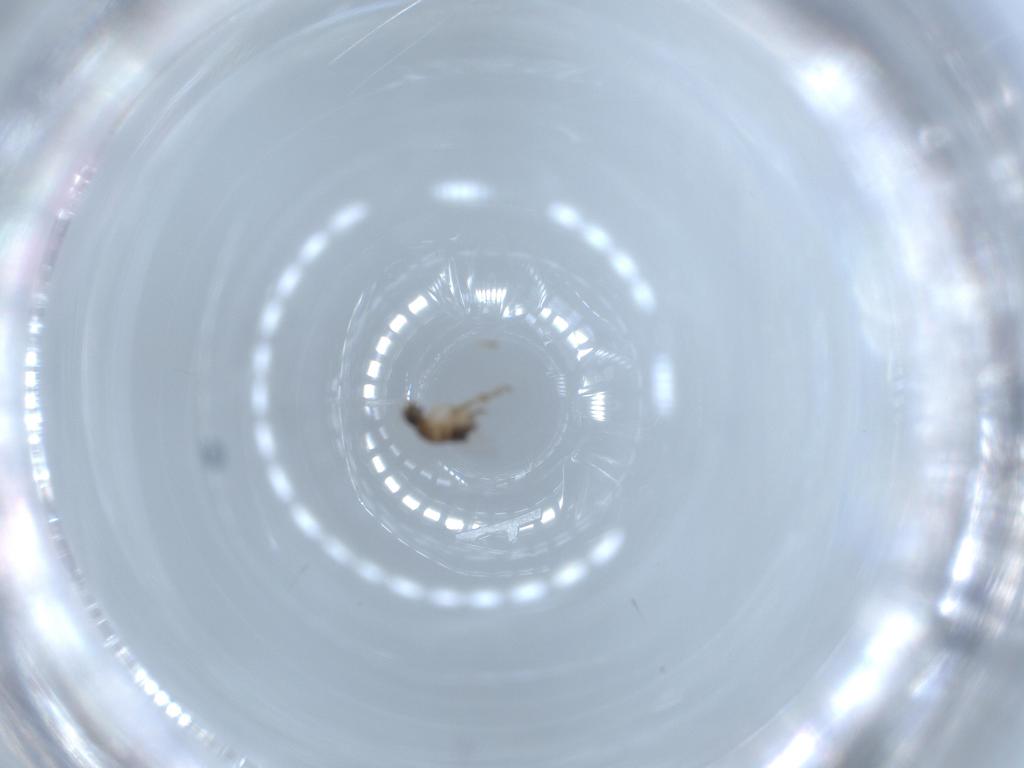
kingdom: Animalia
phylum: Arthropoda
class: Insecta
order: Diptera
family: Phoridae
